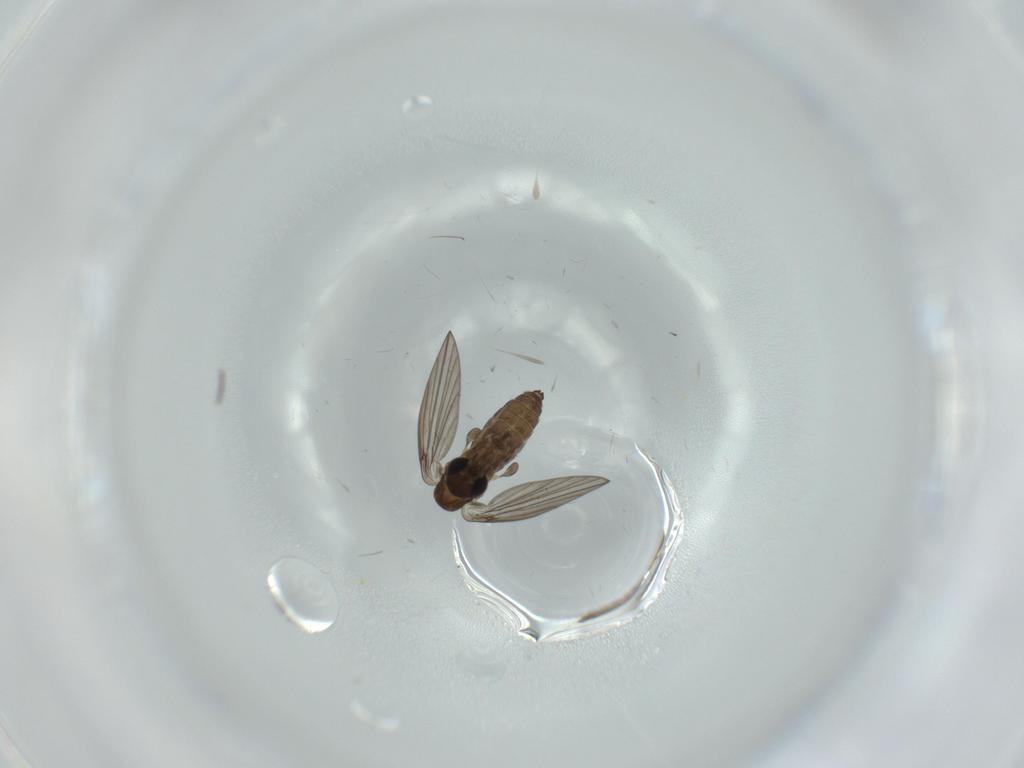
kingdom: Animalia
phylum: Arthropoda
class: Insecta
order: Diptera
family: Psychodidae
